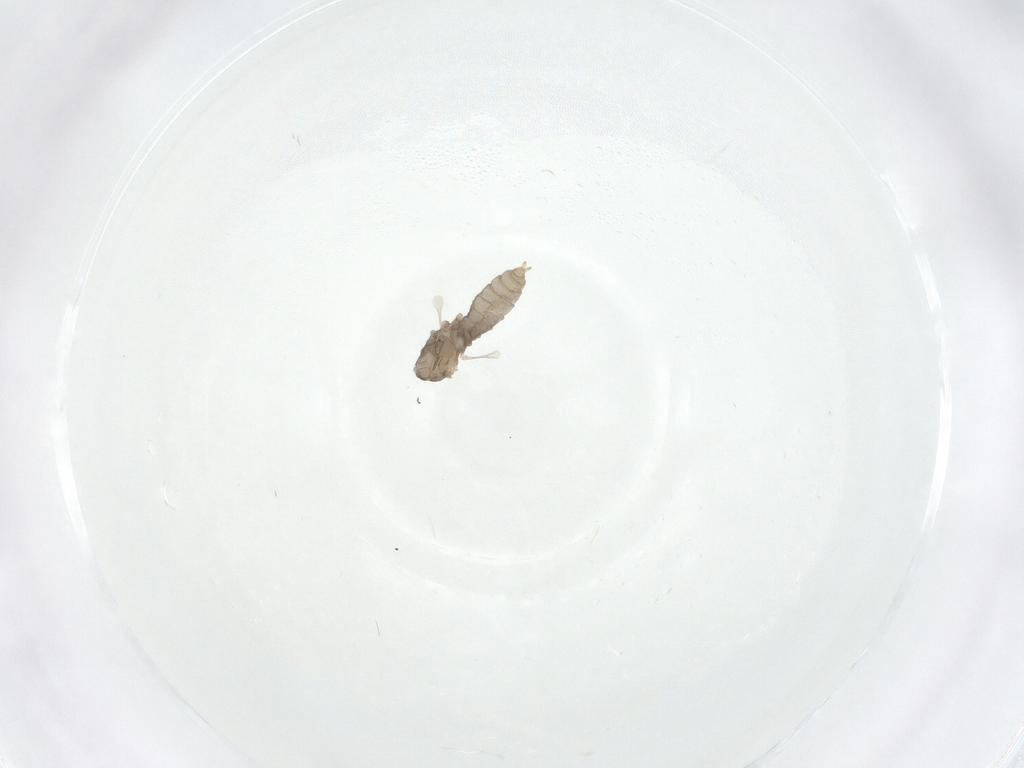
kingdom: Animalia
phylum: Arthropoda
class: Insecta
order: Diptera
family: Cecidomyiidae
